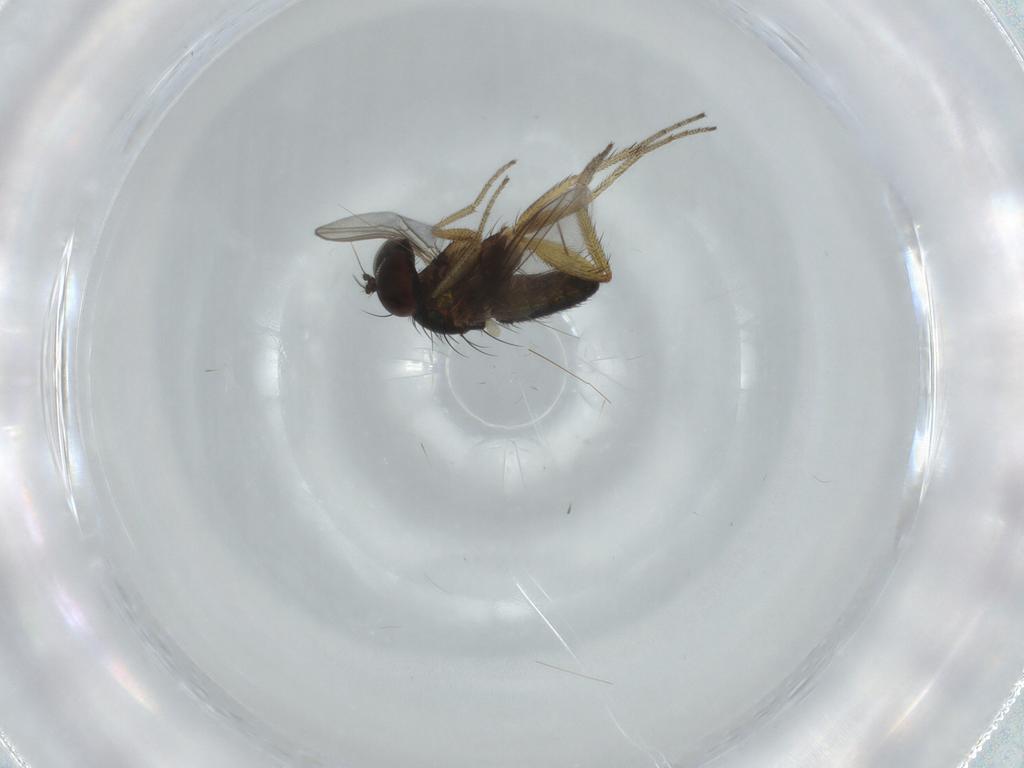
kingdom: Animalia
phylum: Arthropoda
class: Insecta
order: Diptera
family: Dolichopodidae
